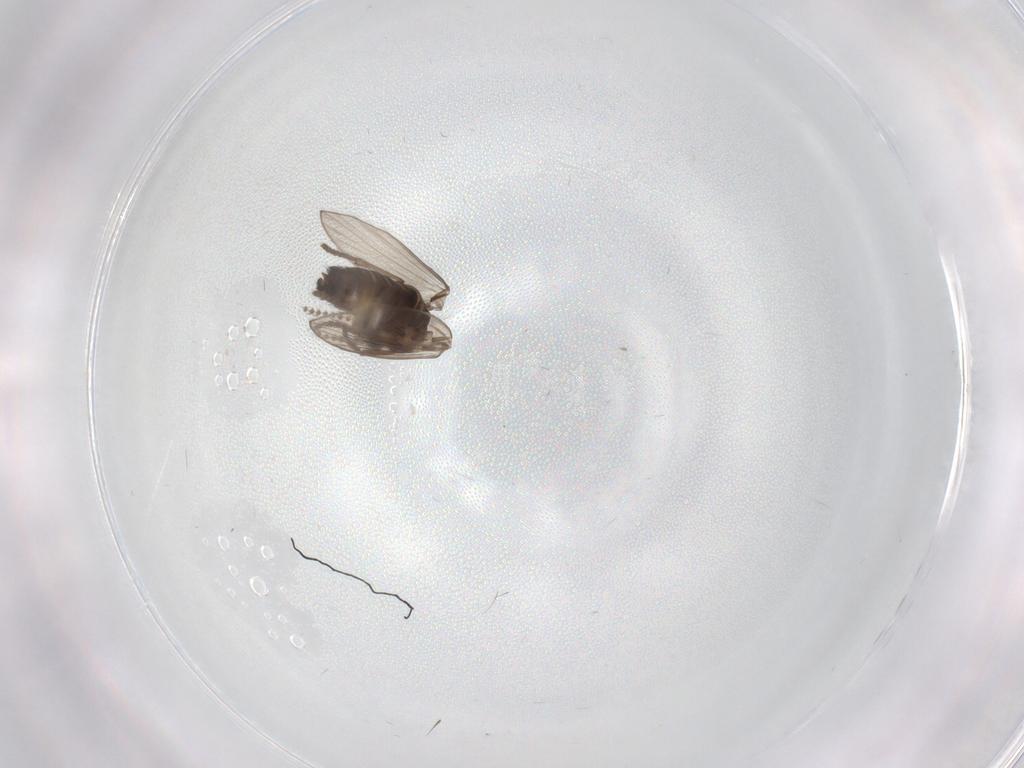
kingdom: Animalia
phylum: Arthropoda
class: Insecta
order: Diptera
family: Psychodidae
